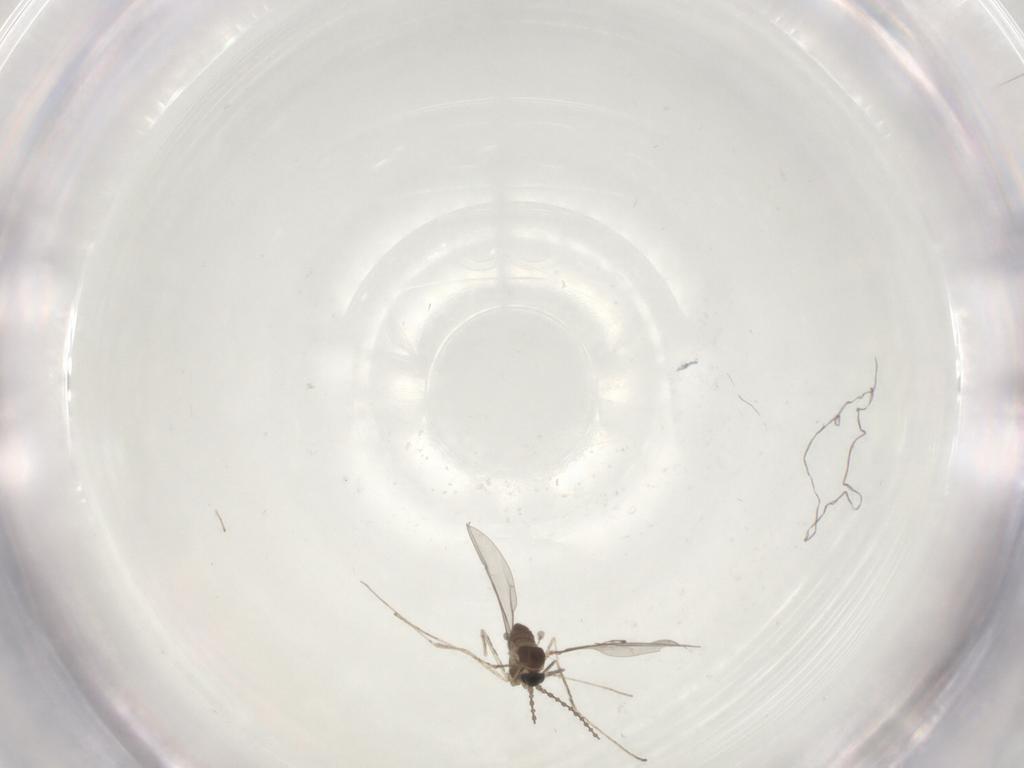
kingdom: Animalia
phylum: Arthropoda
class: Insecta
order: Diptera
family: Cecidomyiidae
